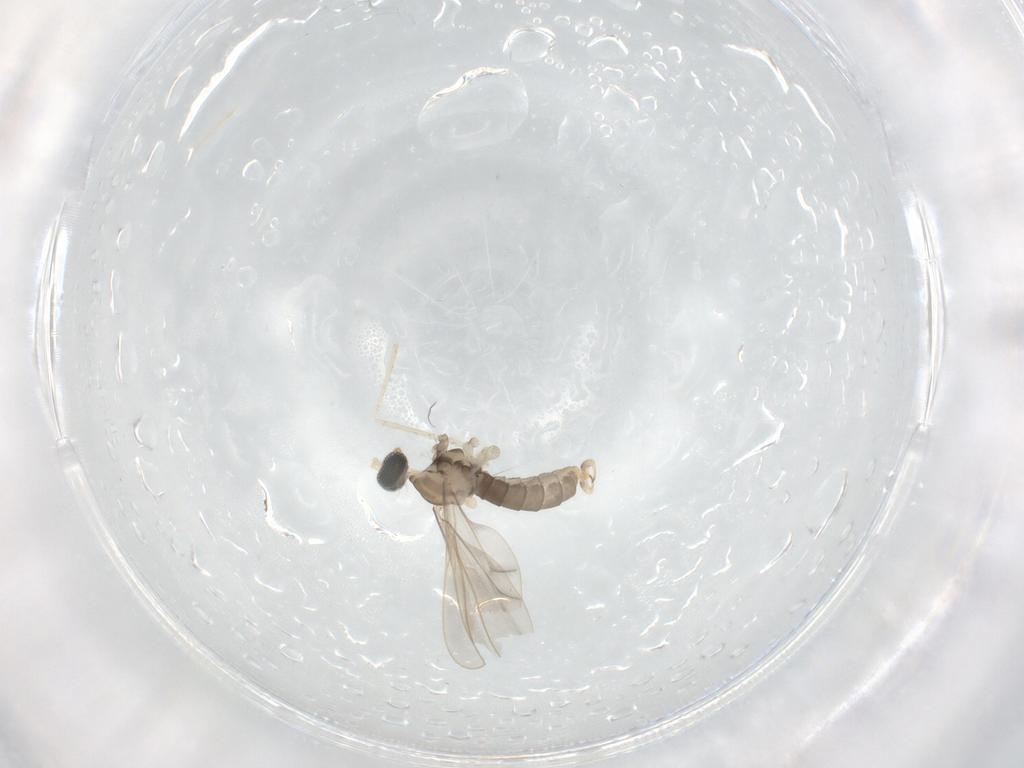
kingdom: Animalia
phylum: Arthropoda
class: Insecta
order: Diptera
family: Cecidomyiidae
